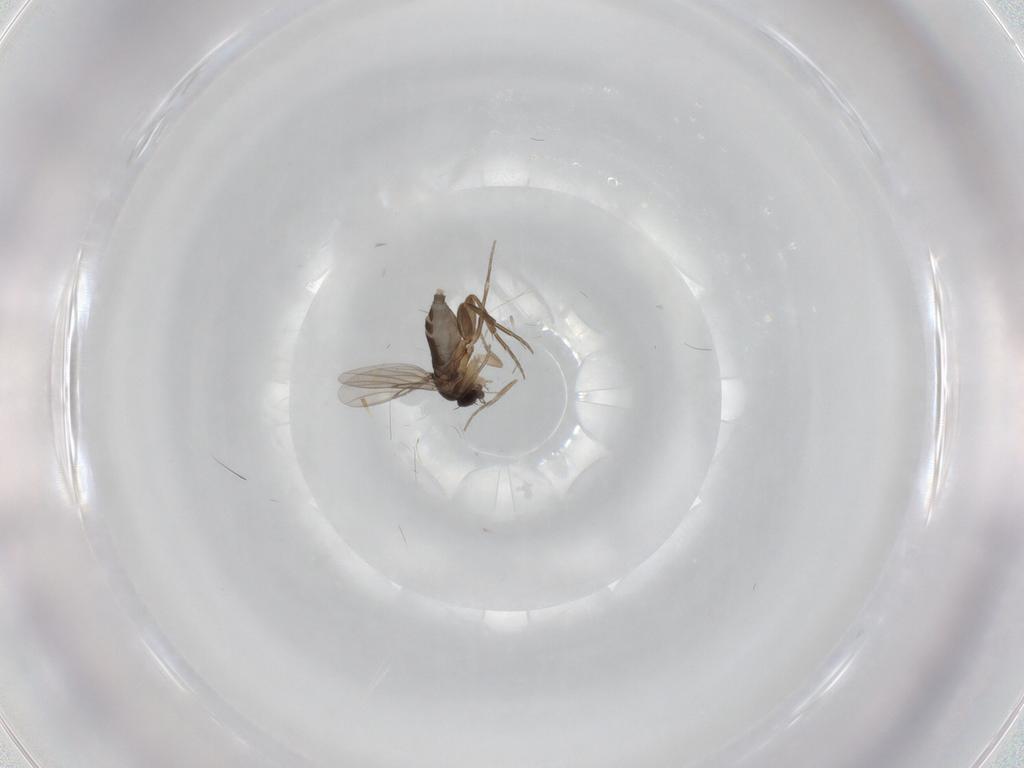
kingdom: Animalia
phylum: Arthropoda
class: Insecta
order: Diptera
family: Phoridae
